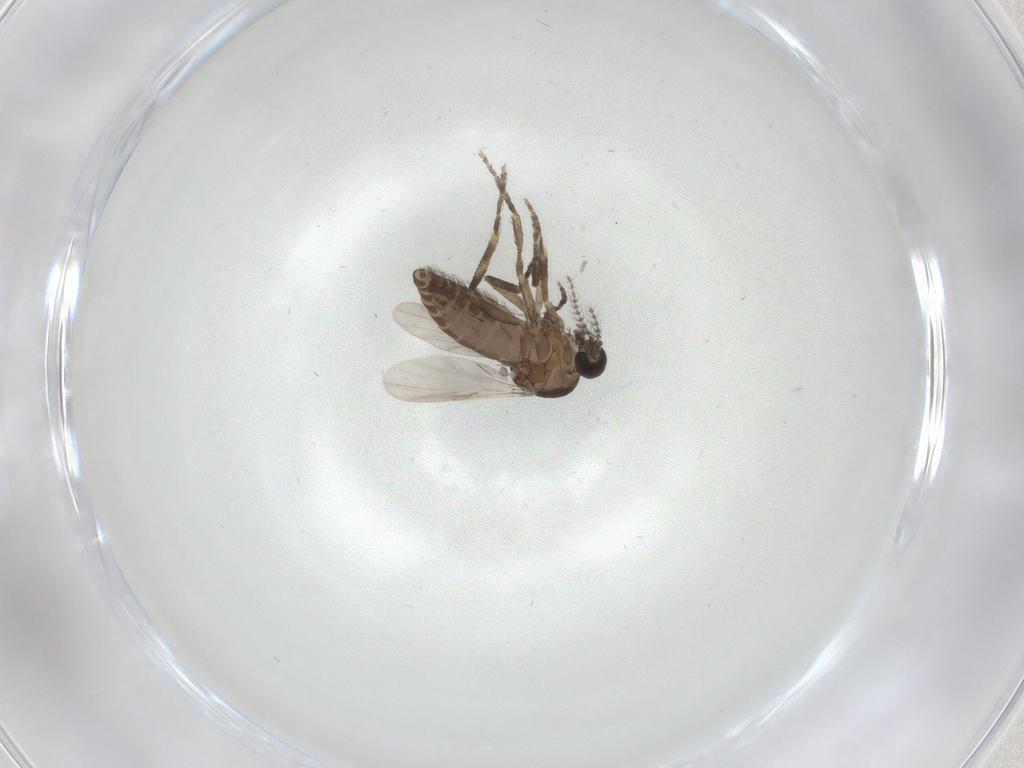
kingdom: Animalia
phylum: Arthropoda
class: Insecta
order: Diptera
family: Ceratopogonidae
